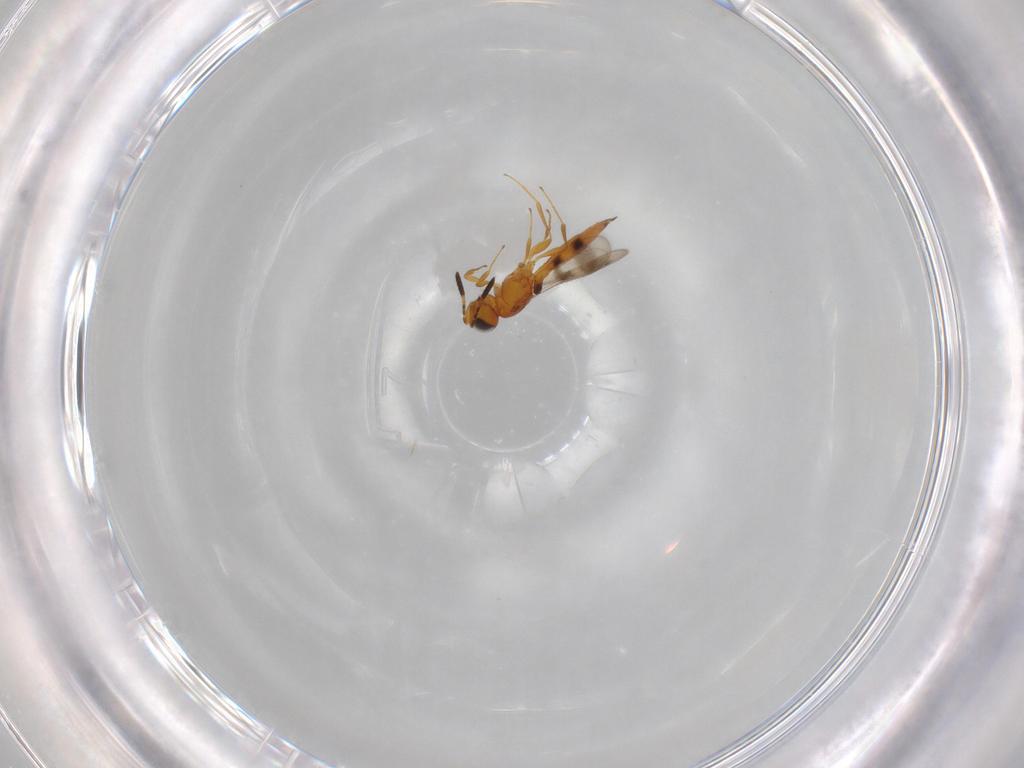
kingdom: Animalia
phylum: Arthropoda
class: Insecta
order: Hymenoptera
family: Scelionidae
